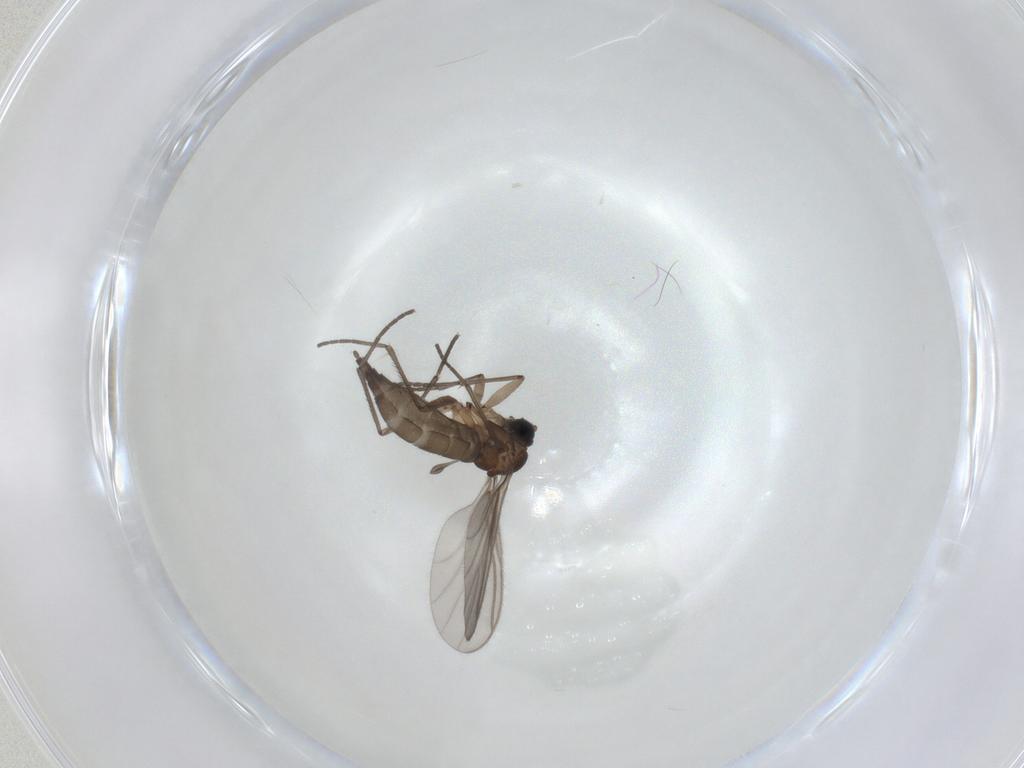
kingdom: Animalia
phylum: Arthropoda
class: Insecta
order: Diptera
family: Sciaridae
